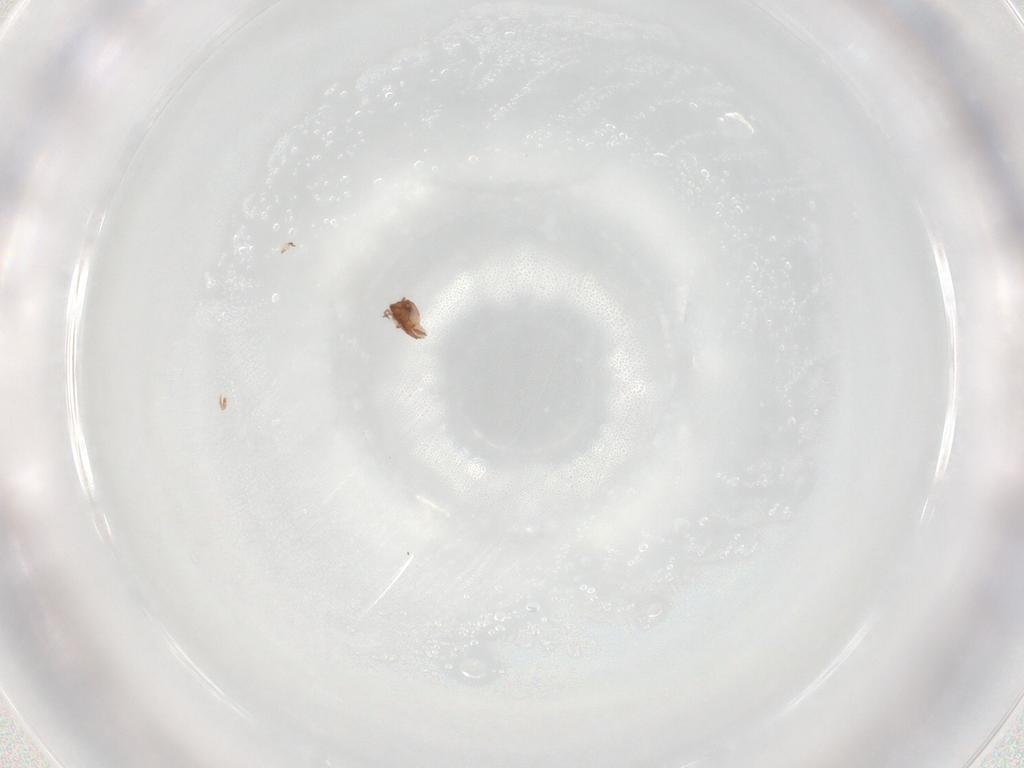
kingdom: Animalia
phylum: Arthropoda
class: Arachnida
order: Sarcoptiformes
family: Scheloribatidae
